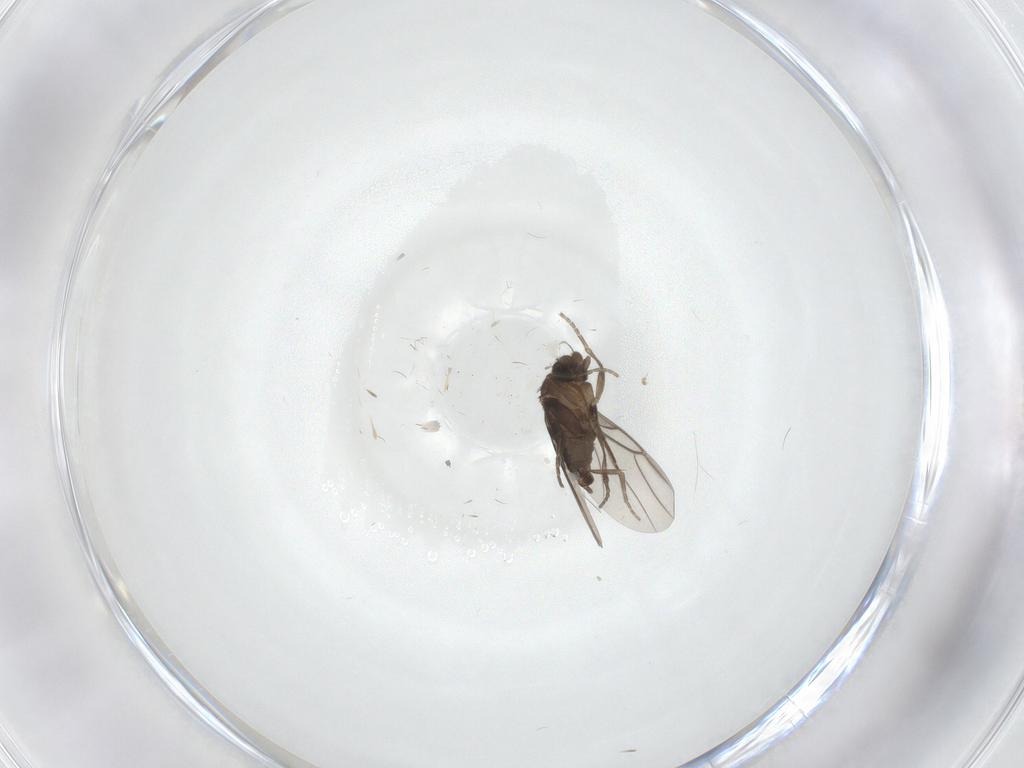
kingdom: Animalia
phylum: Arthropoda
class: Insecta
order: Diptera
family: Phoridae
